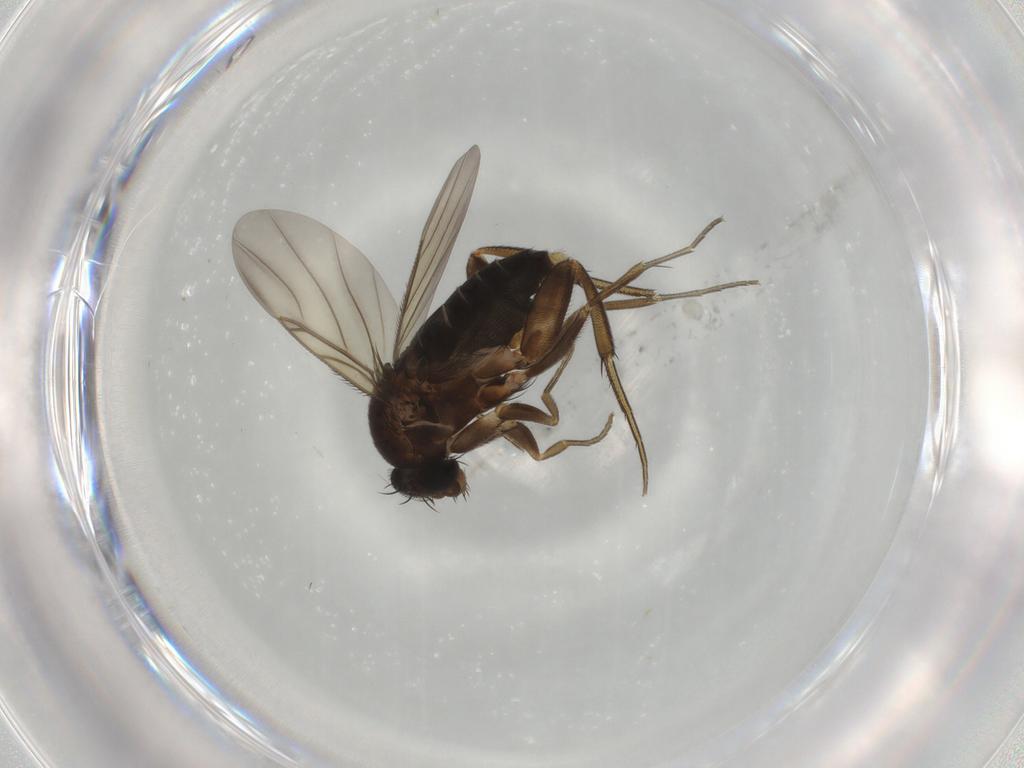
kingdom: Animalia
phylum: Arthropoda
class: Insecta
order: Diptera
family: Phoridae
